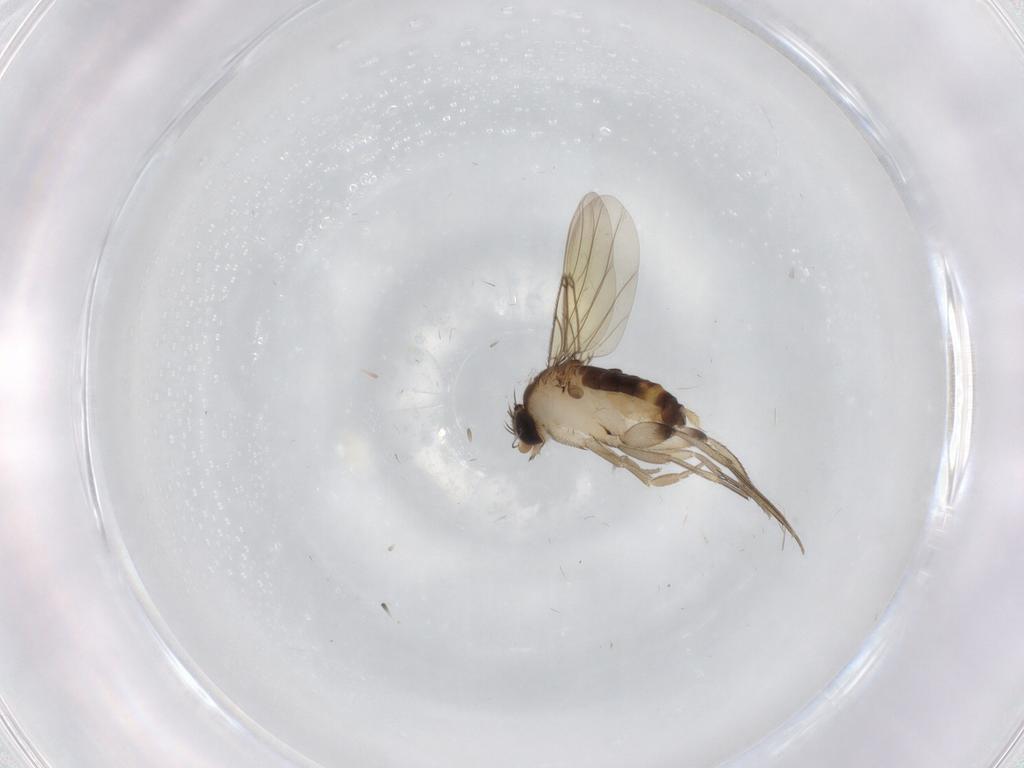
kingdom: Animalia
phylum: Arthropoda
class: Insecta
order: Diptera
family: Phoridae
